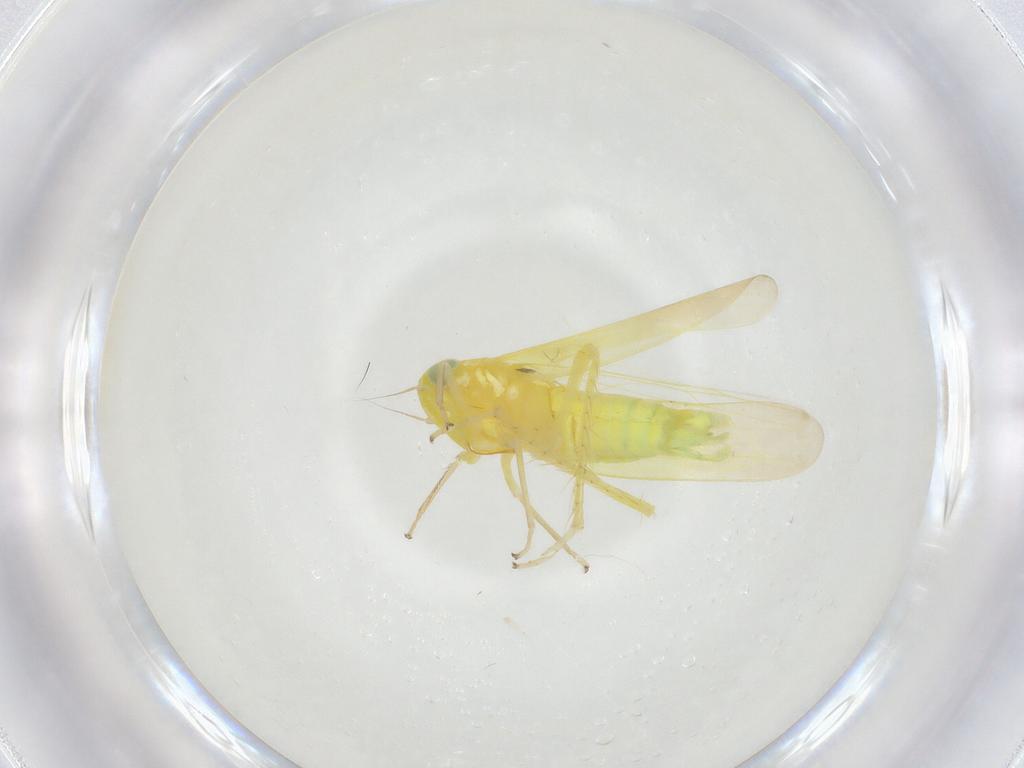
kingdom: Animalia
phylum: Arthropoda
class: Insecta
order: Hemiptera
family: Cicadellidae
